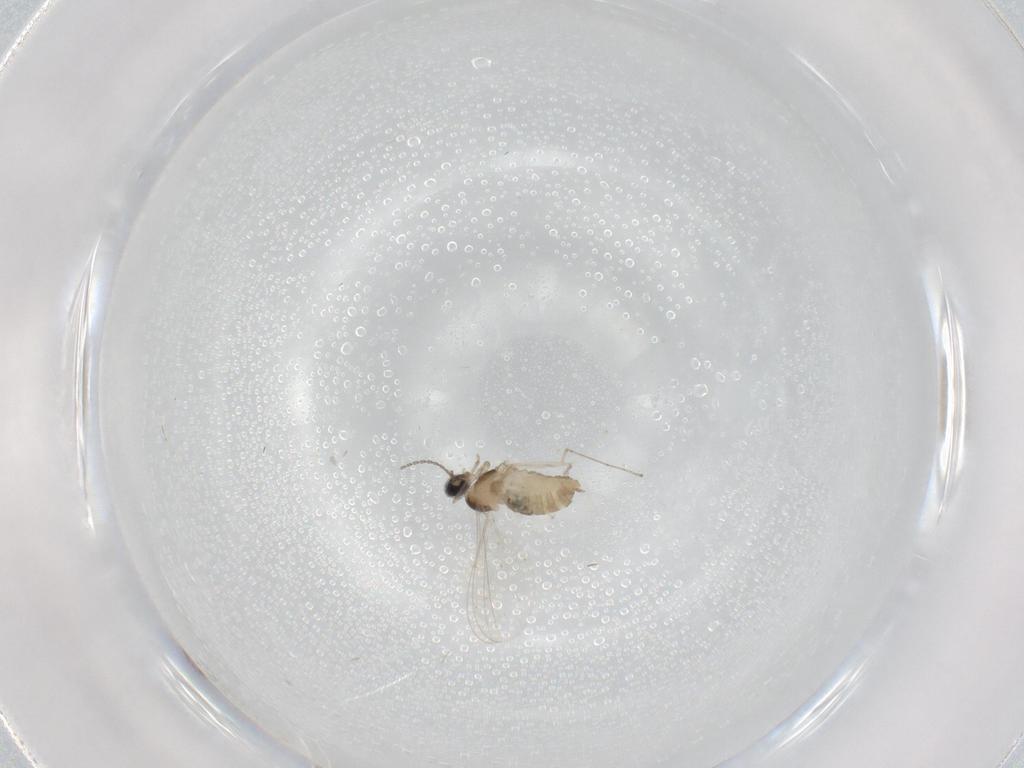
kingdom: Animalia
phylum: Arthropoda
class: Insecta
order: Diptera
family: Cecidomyiidae
